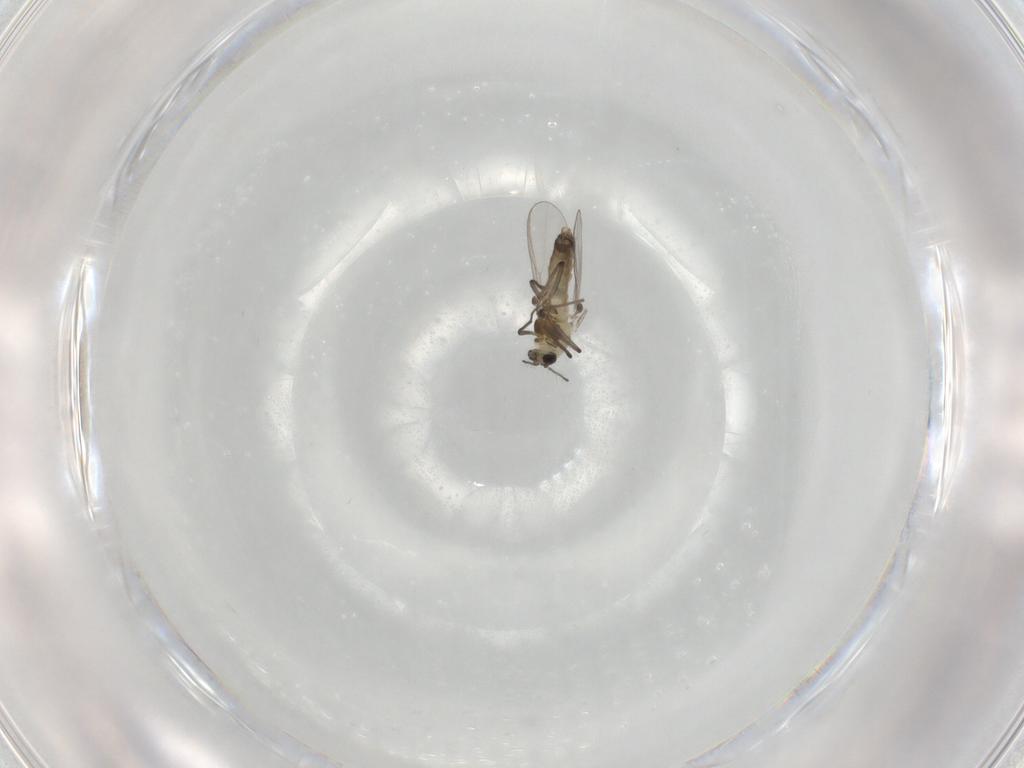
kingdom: Animalia
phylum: Arthropoda
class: Insecta
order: Diptera
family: Chironomidae
